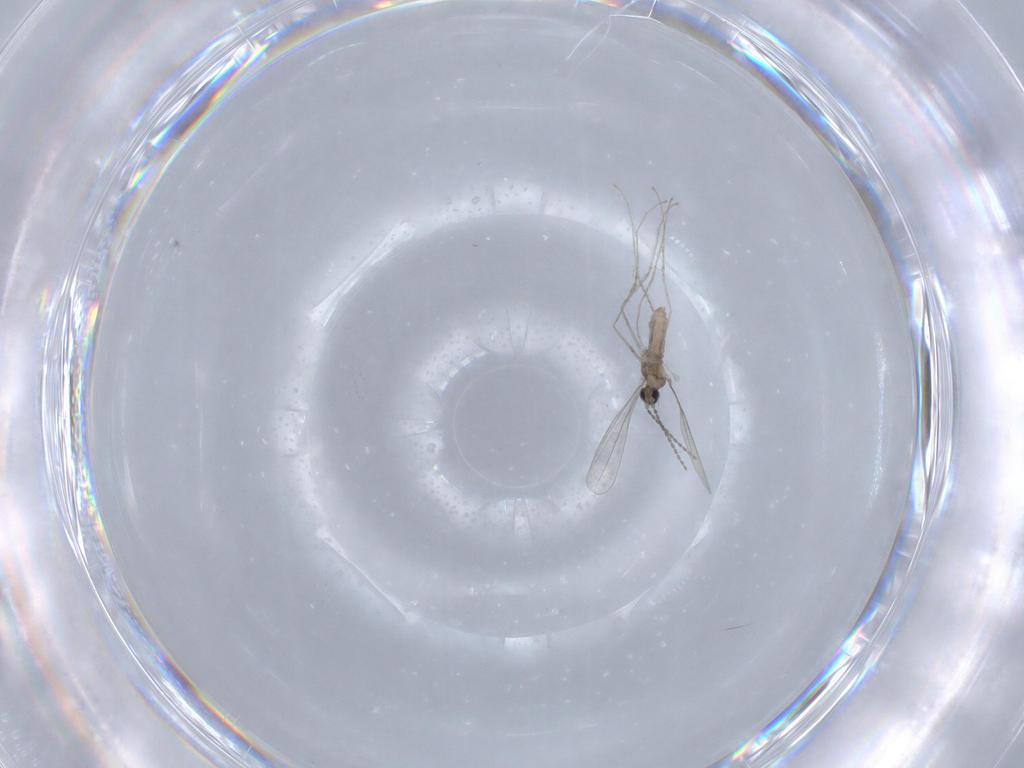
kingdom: Animalia
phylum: Arthropoda
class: Insecta
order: Diptera
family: Cecidomyiidae
